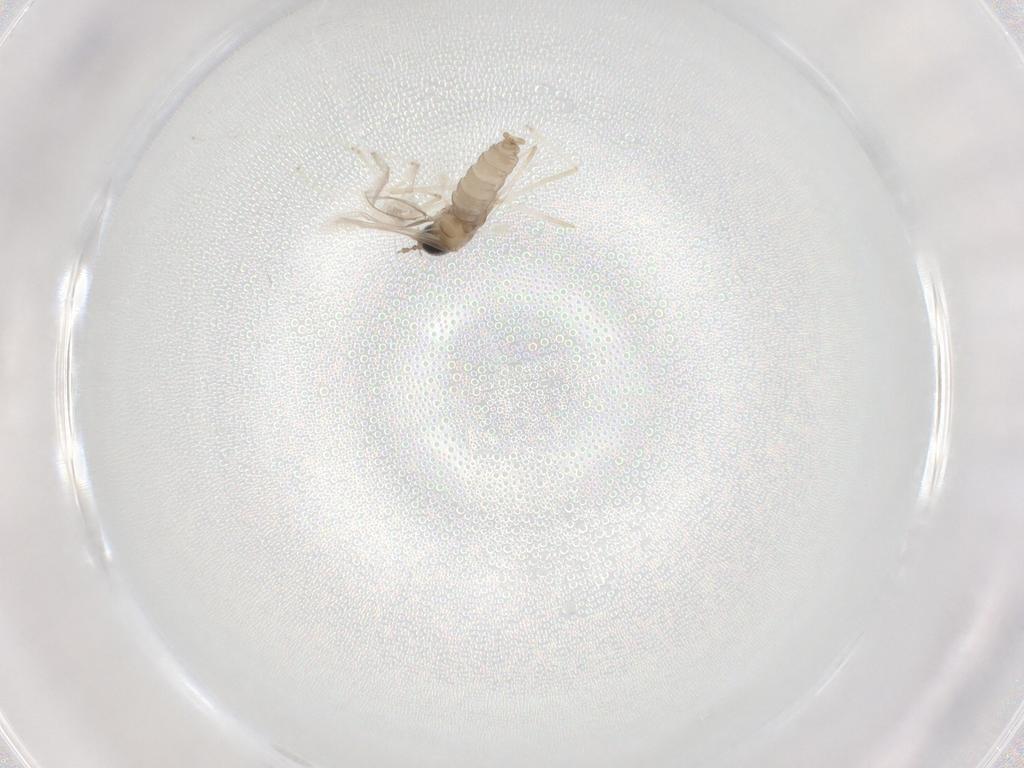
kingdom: Animalia
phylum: Arthropoda
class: Insecta
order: Diptera
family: Cecidomyiidae
